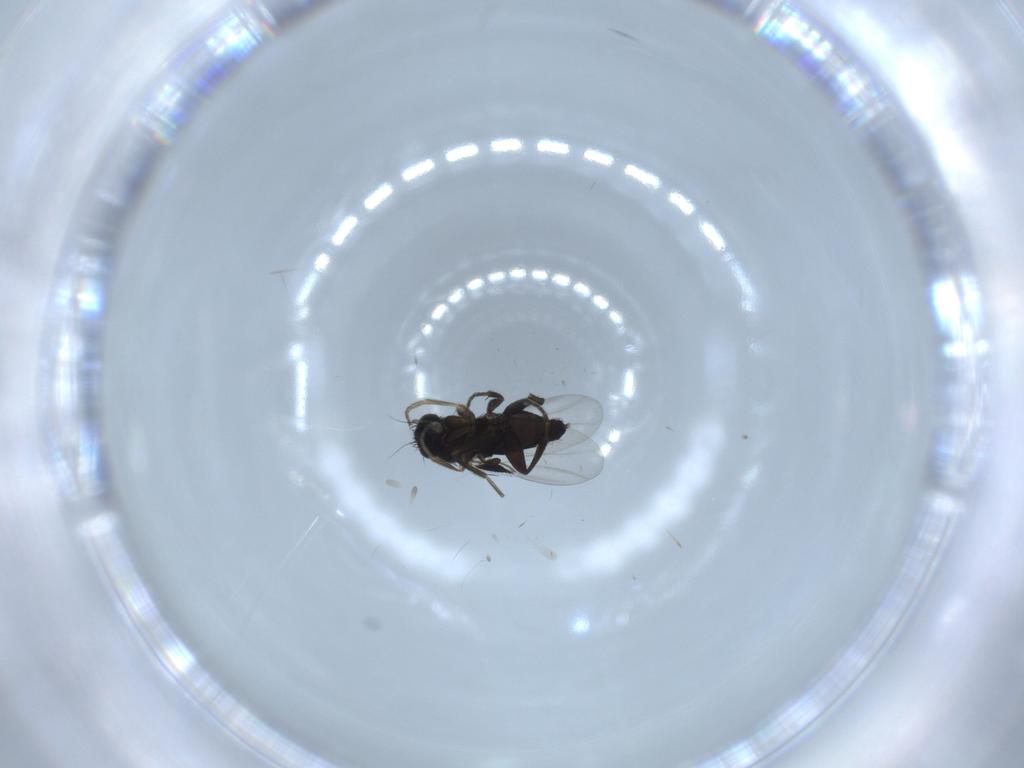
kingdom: Animalia
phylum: Arthropoda
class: Insecta
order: Diptera
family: Phoridae
